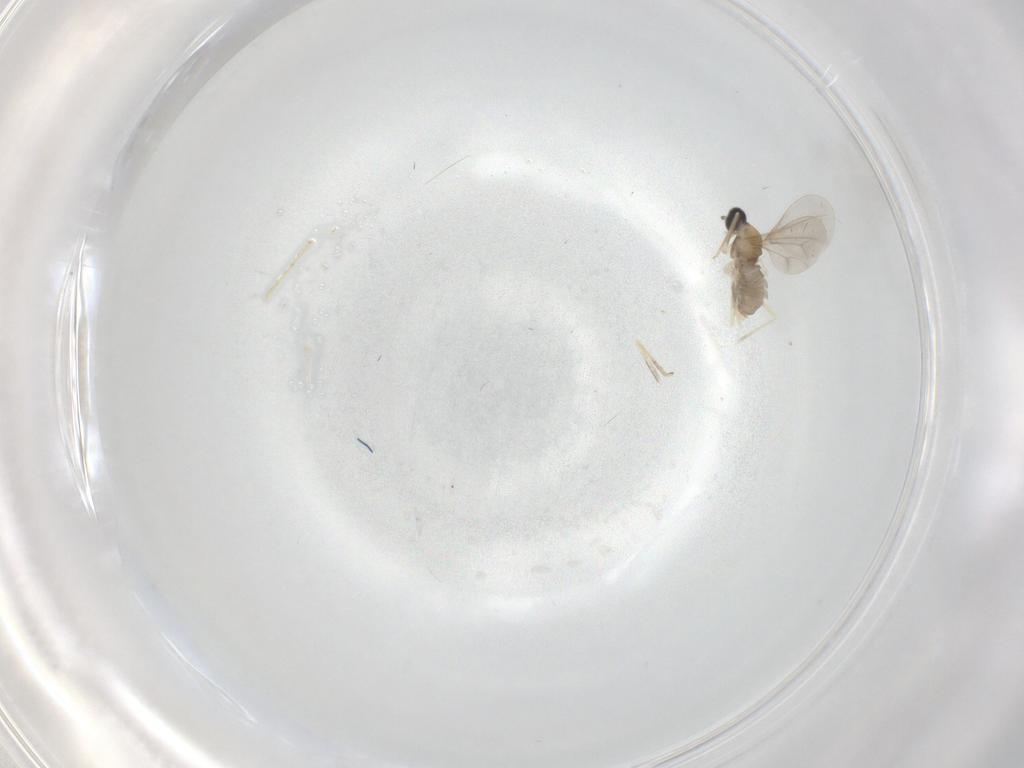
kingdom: Animalia
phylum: Arthropoda
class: Insecta
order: Diptera
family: Cecidomyiidae
